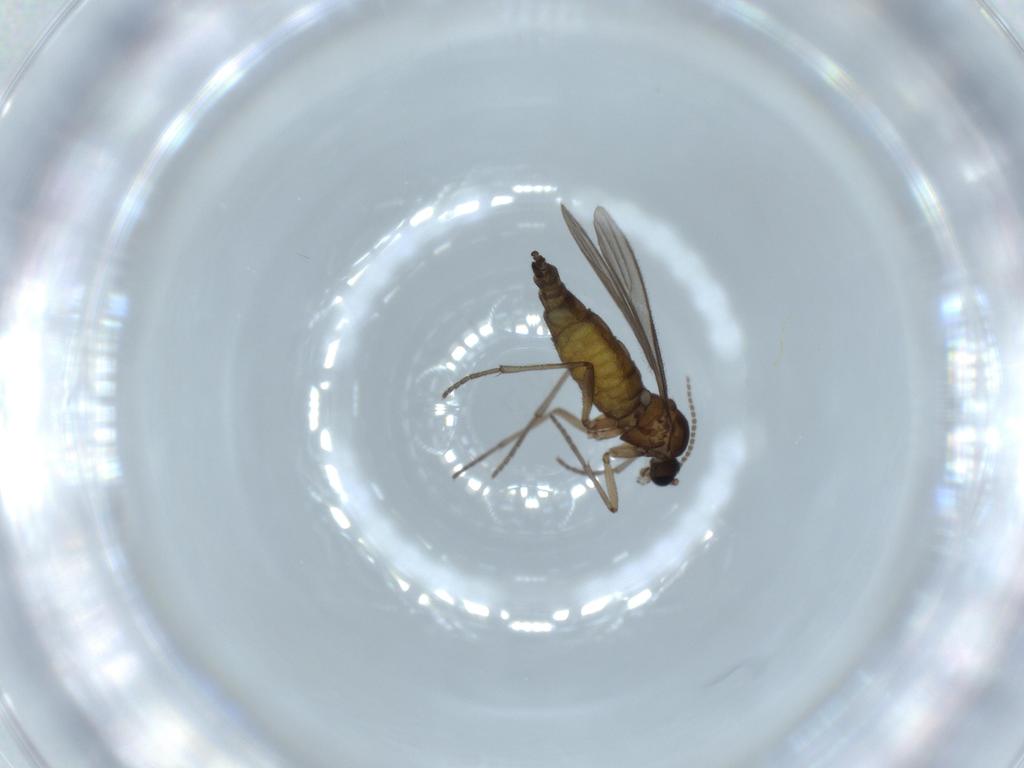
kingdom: Animalia
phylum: Arthropoda
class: Insecta
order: Diptera
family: Sciaridae
